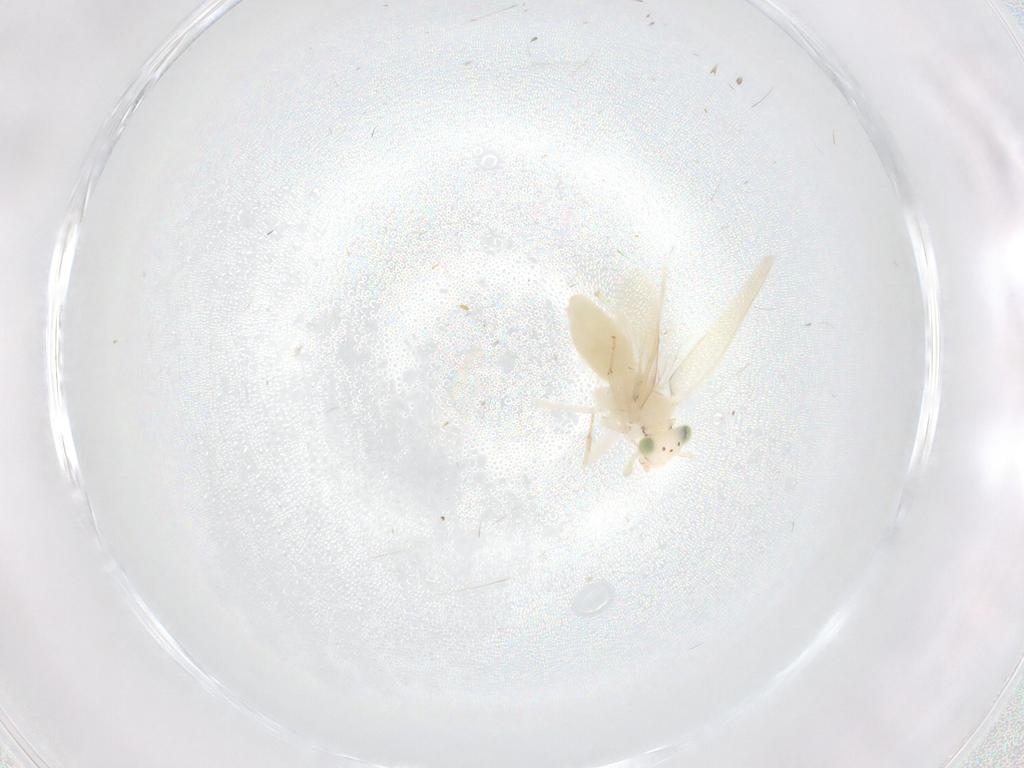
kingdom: Animalia
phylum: Arthropoda
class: Insecta
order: Psocodea
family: Lepidopsocidae
